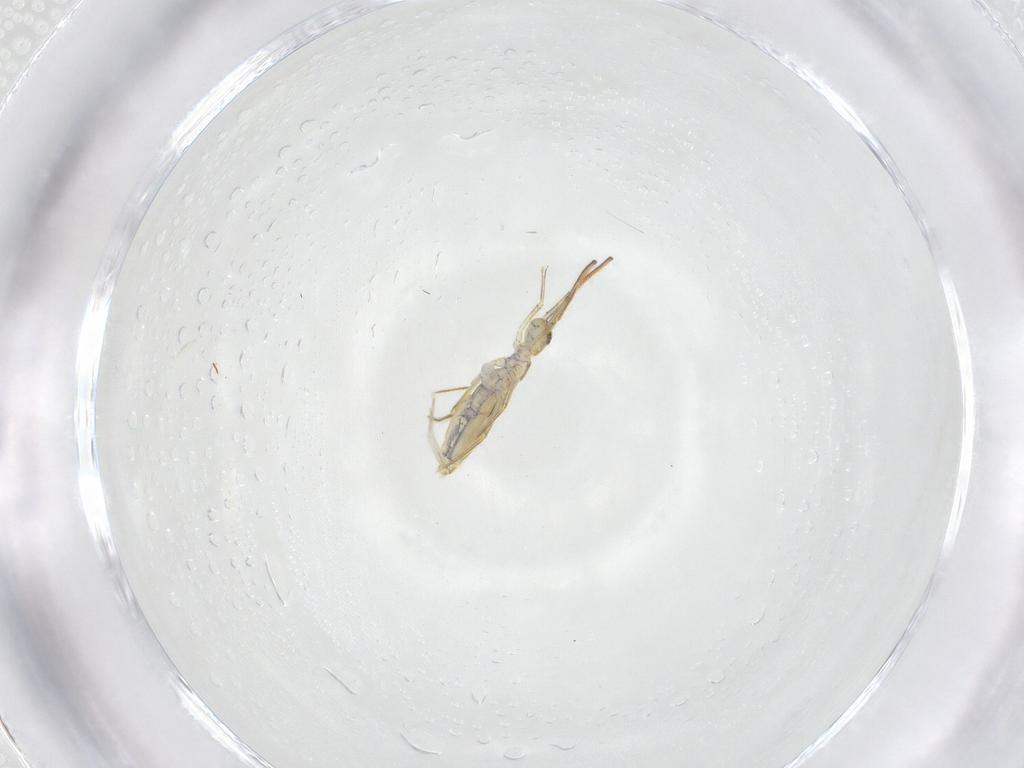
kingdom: Animalia
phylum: Arthropoda
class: Collembola
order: Entomobryomorpha
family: Entomobryidae
